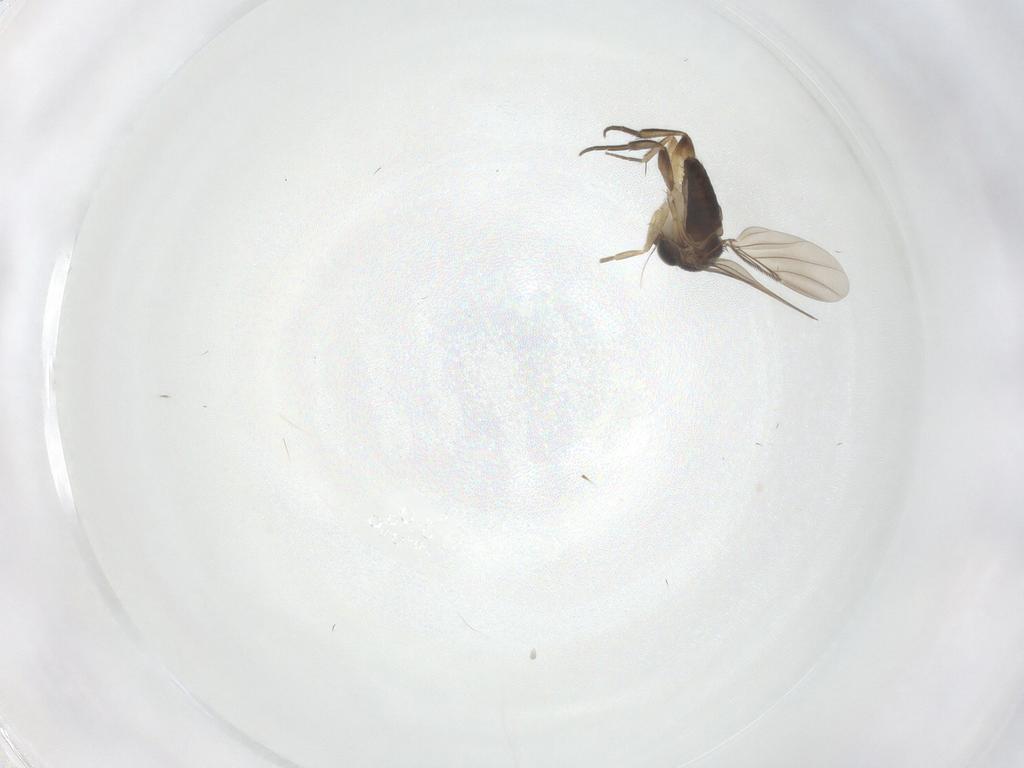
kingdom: Animalia
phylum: Arthropoda
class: Insecta
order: Diptera
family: Phoridae
